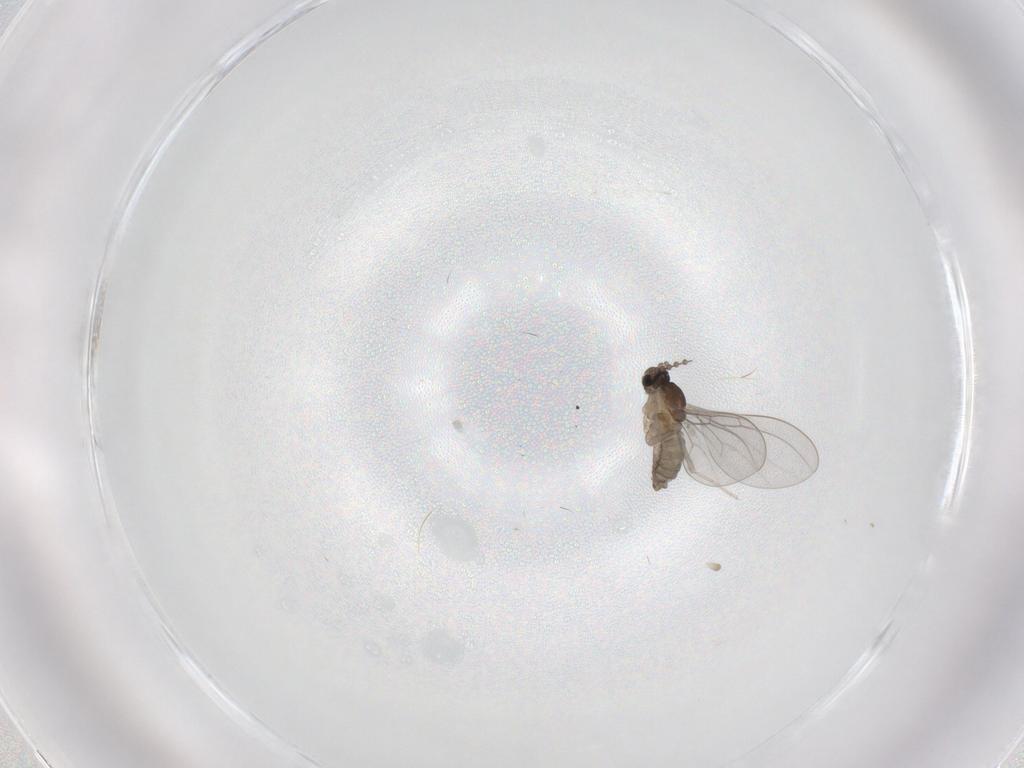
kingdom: Animalia
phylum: Arthropoda
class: Insecta
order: Diptera
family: Cecidomyiidae
